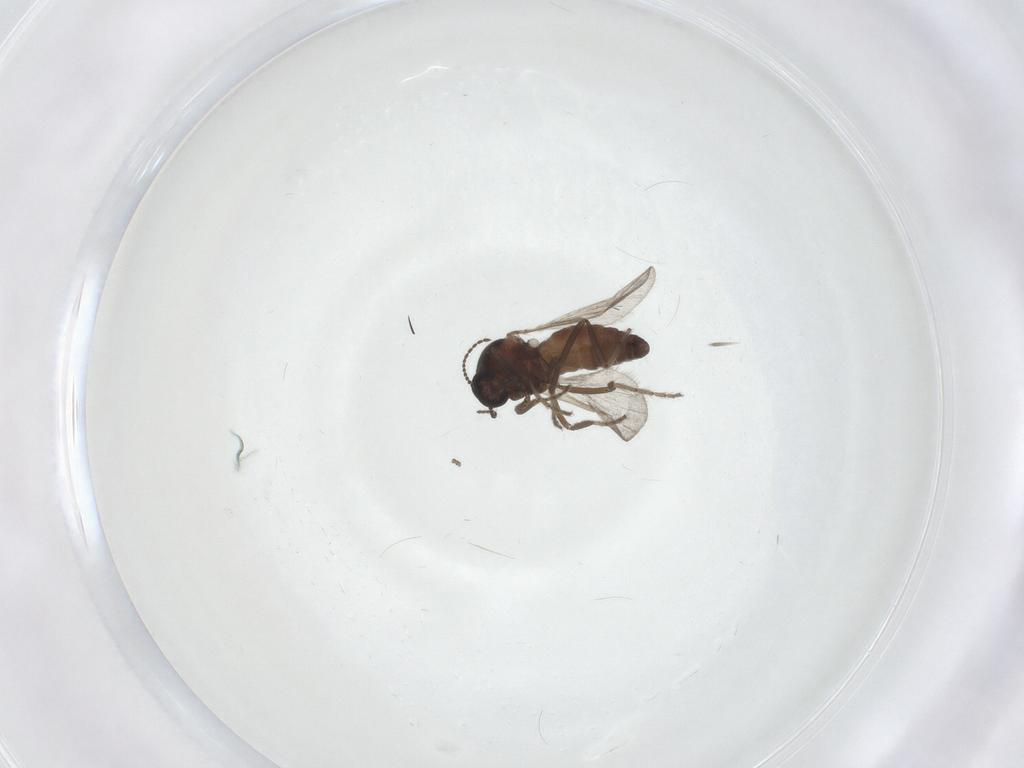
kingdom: Animalia
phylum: Arthropoda
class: Insecta
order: Diptera
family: Ceratopogonidae
